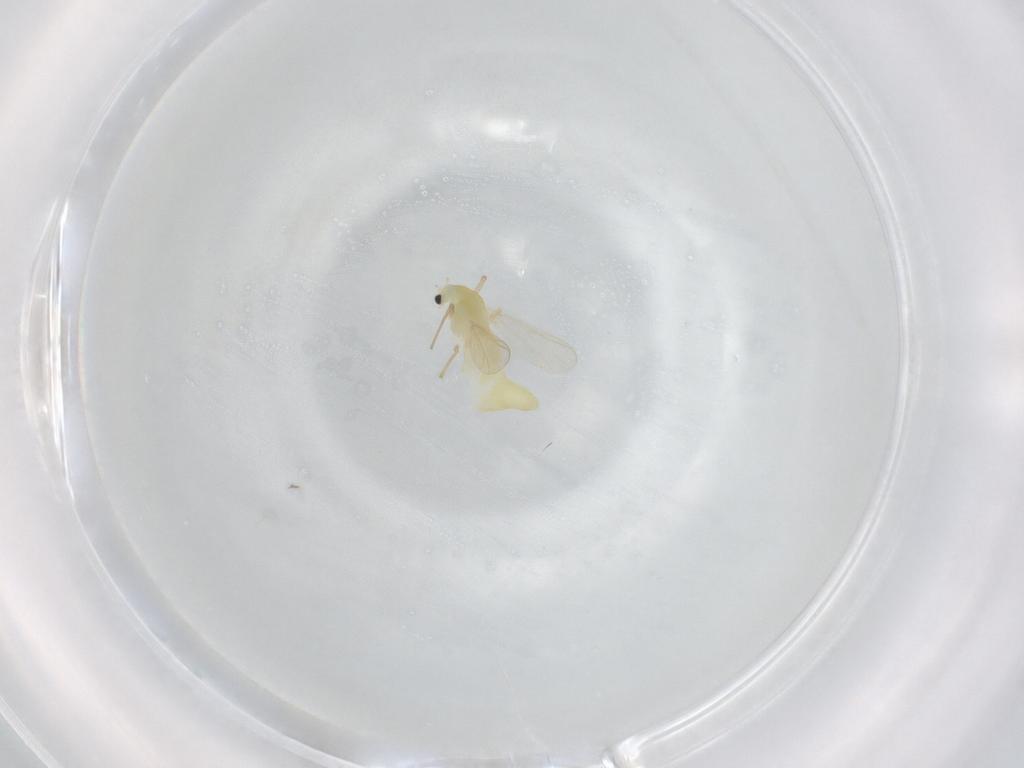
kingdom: Animalia
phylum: Arthropoda
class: Insecta
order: Diptera
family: Chironomidae
